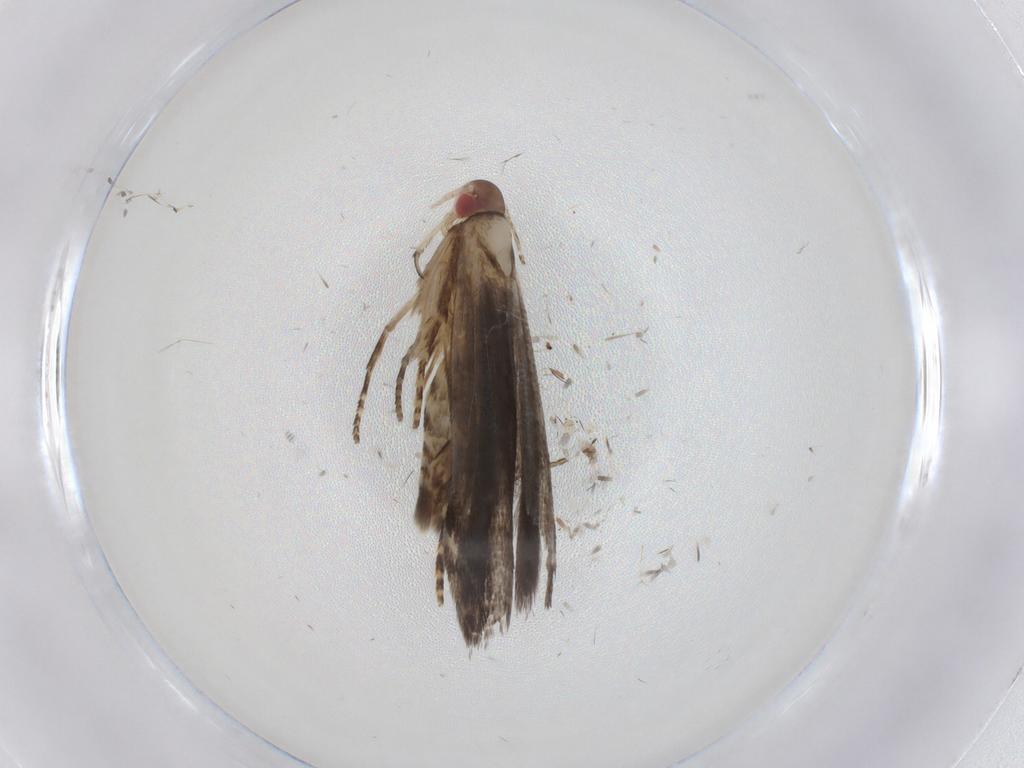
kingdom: Animalia
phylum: Arthropoda
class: Insecta
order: Lepidoptera
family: Gelechiidae
